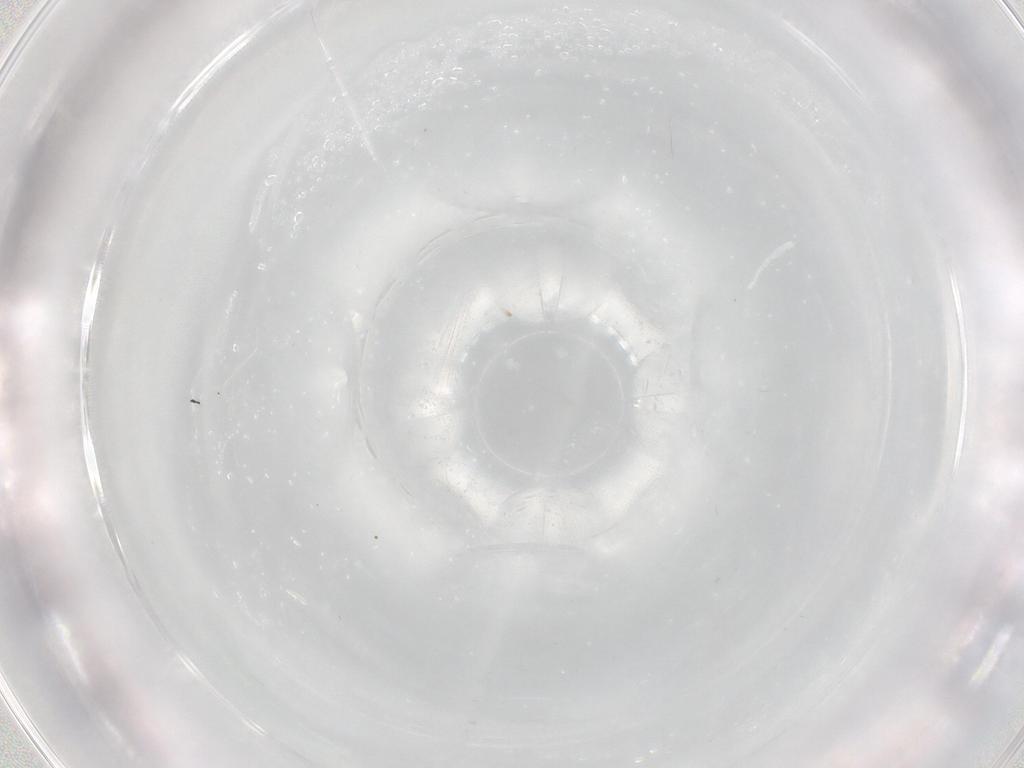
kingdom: Animalia
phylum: Arthropoda
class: Insecta
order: Diptera
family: Cecidomyiidae
